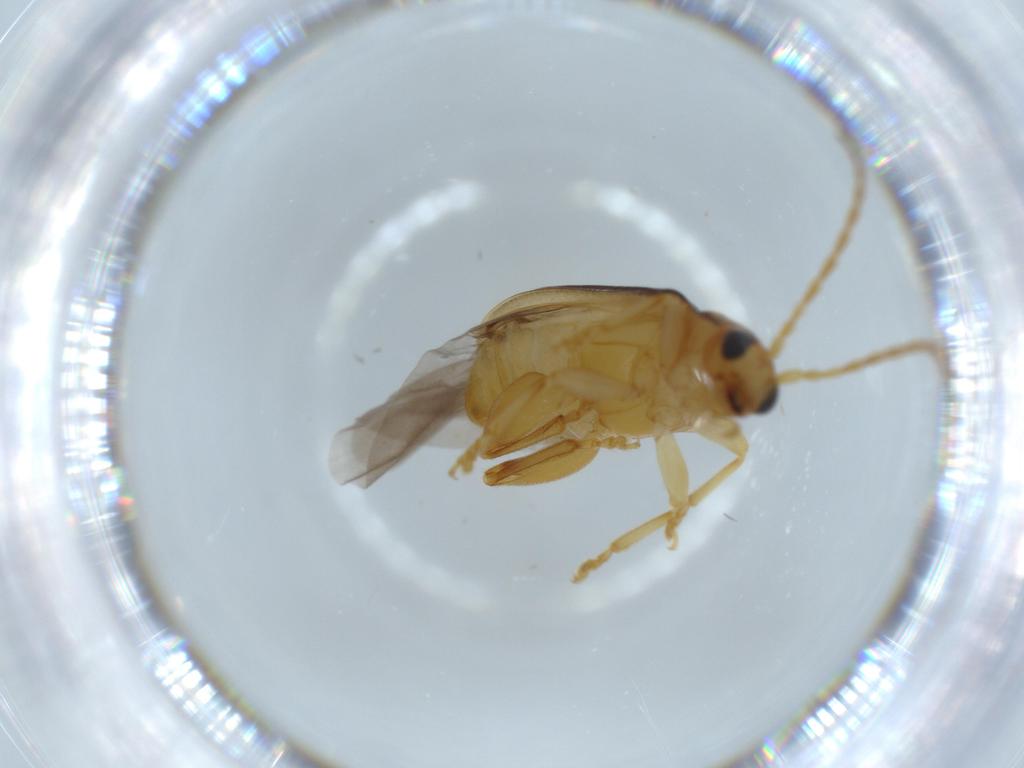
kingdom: Animalia
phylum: Arthropoda
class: Insecta
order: Coleoptera
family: Chrysomelidae
